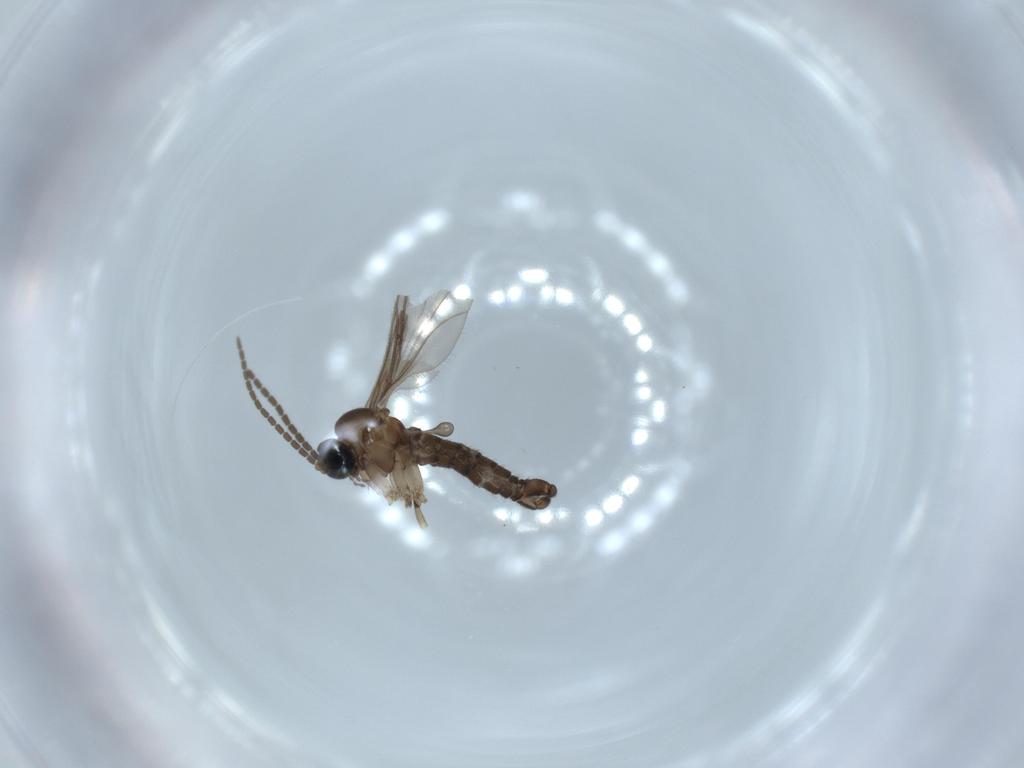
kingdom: Animalia
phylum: Arthropoda
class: Insecta
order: Diptera
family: Sciaridae
